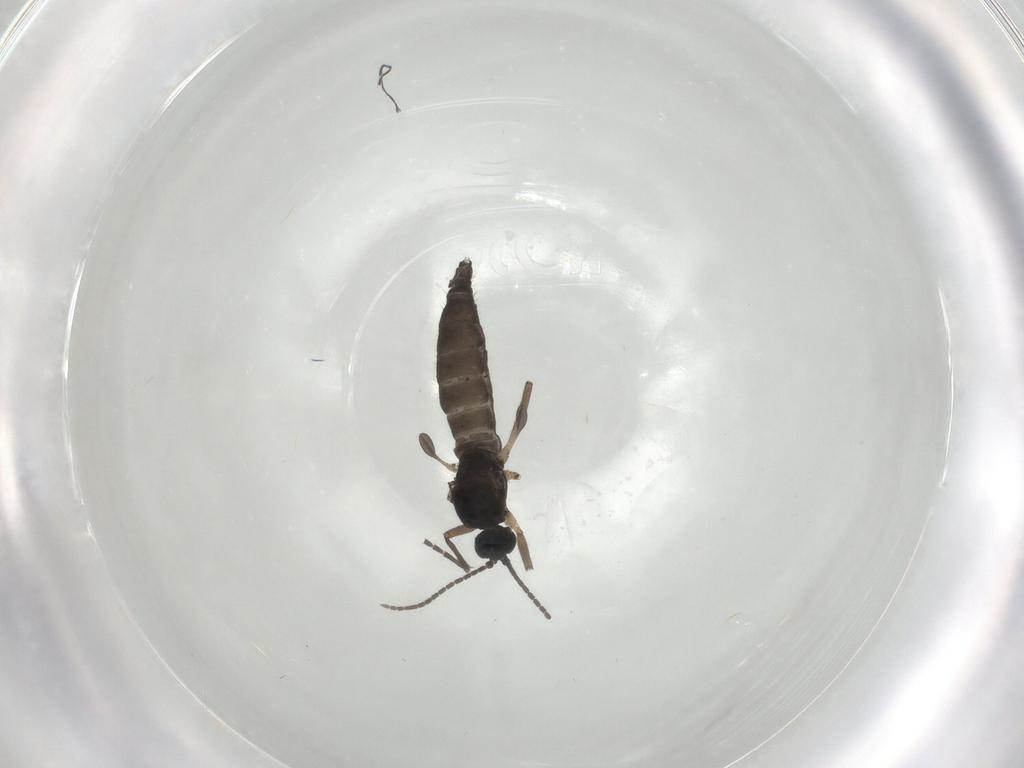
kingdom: Animalia
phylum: Arthropoda
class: Insecta
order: Diptera
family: Sciaridae
